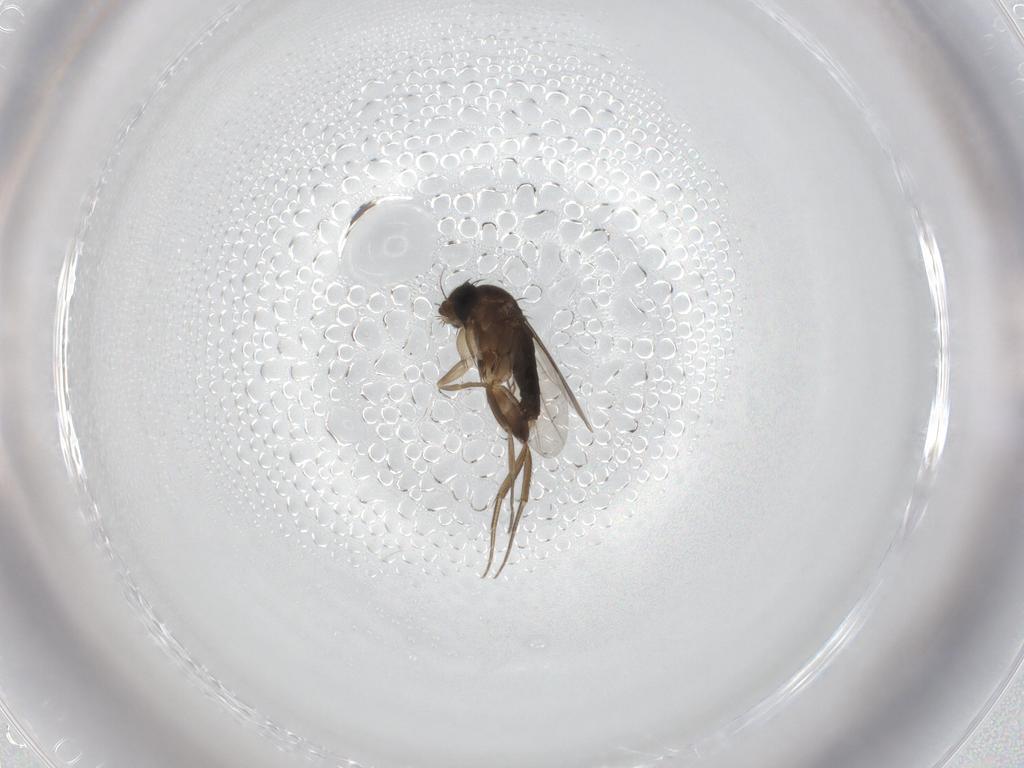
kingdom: Animalia
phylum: Arthropoda
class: Insecta
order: Diptera
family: Phoridae
